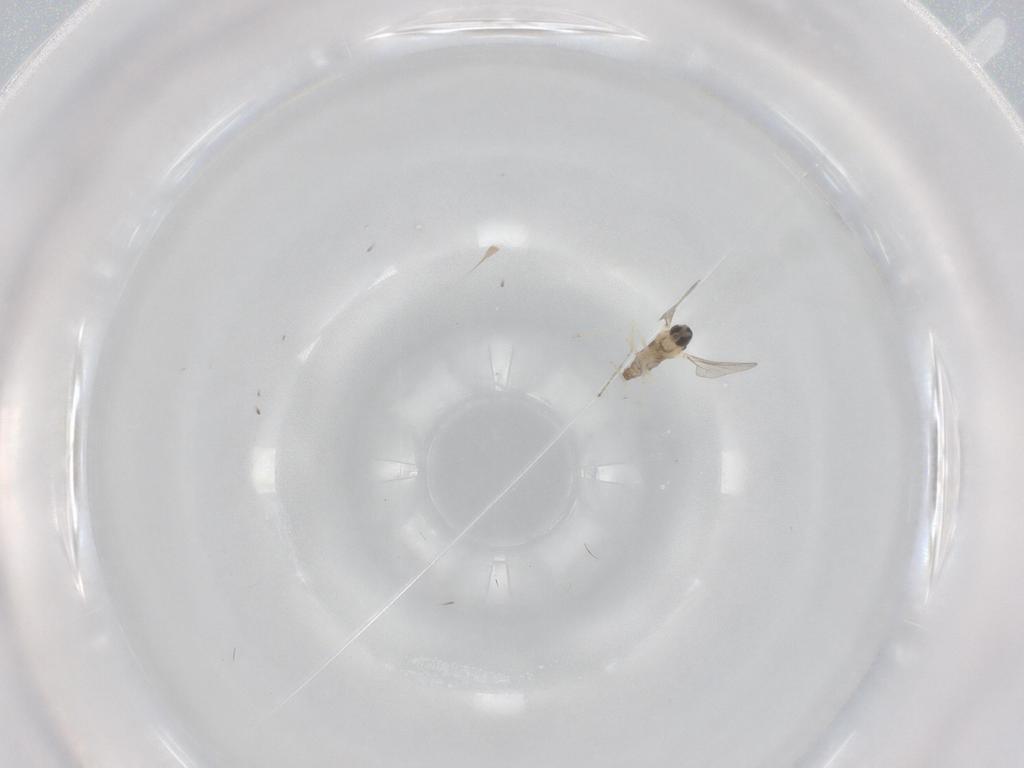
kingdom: Animalia
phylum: Arthropoda
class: Insecta
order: Diptera
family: Cecidomyiidae
